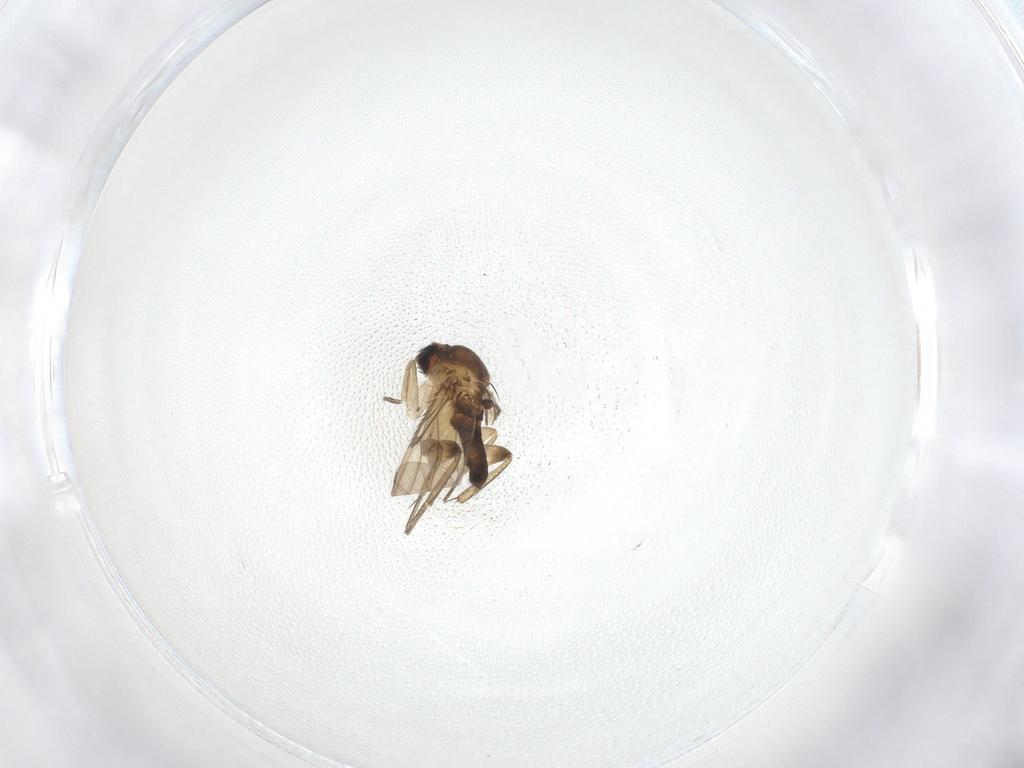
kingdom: Animalia
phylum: Arthropoda
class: Insecta
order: Diptera
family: Phoridae
